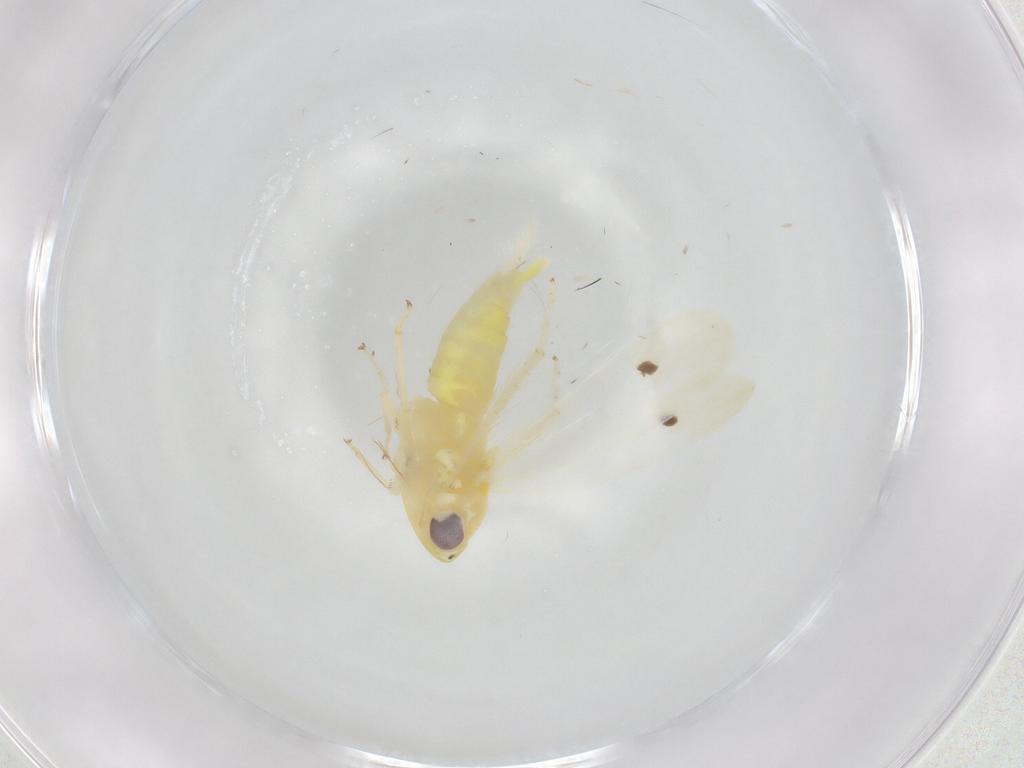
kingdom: Animalia
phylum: Arthropoda
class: Insecta
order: Hemiptera
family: Cicadellidae
